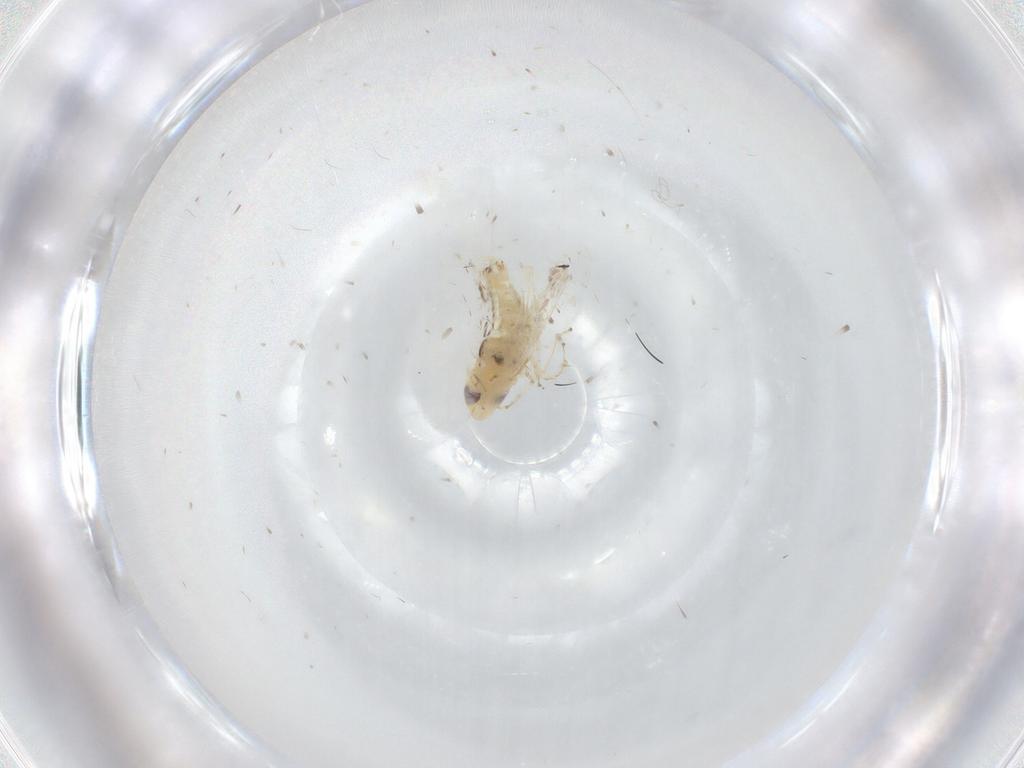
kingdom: Animalia
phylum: Arthropoda
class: Insecta
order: Hemiptera
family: Cicadellidae
